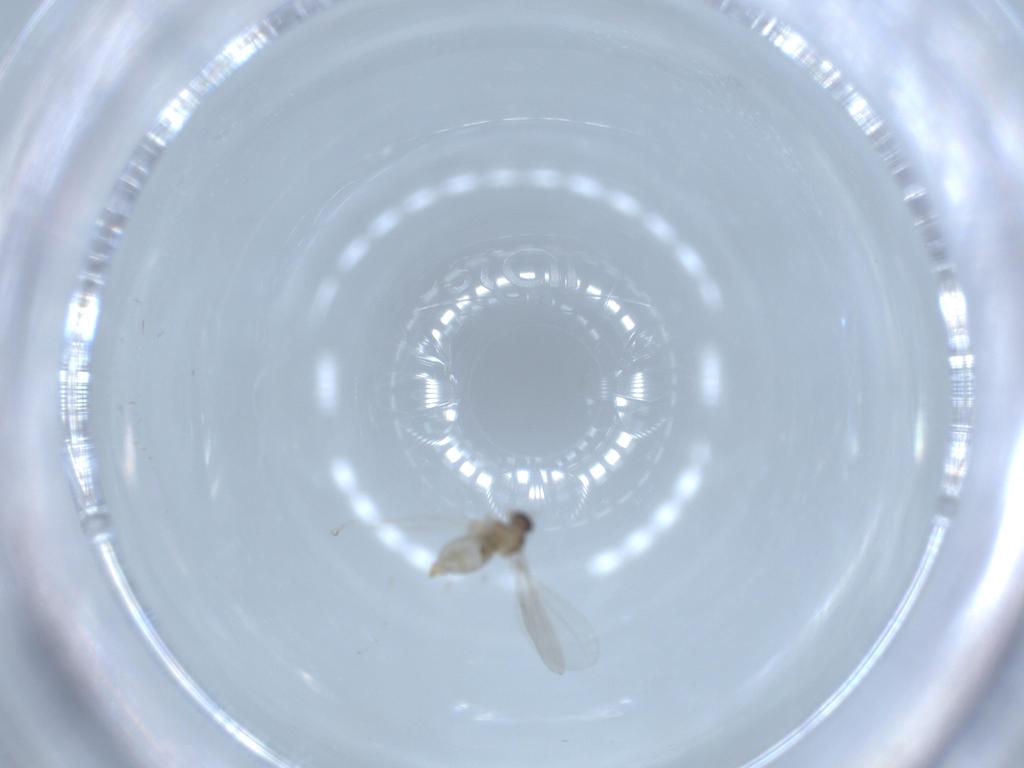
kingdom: Animalia
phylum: Arthropoda
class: Insecta
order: Diptera
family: Cecidomyiidae
